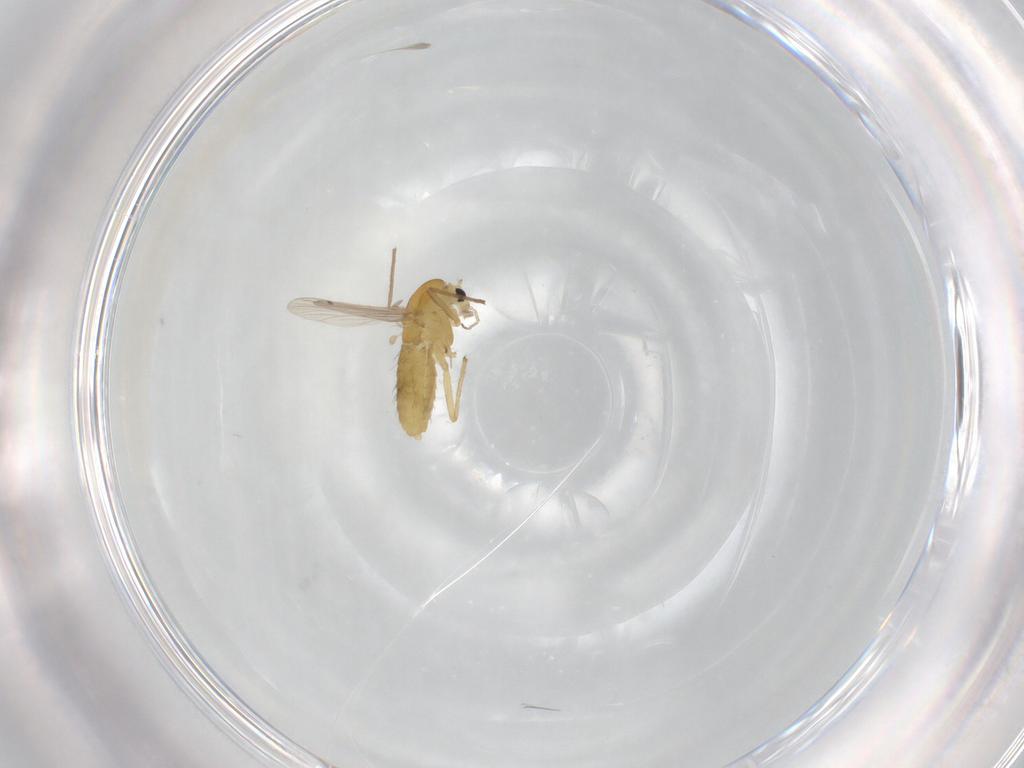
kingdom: Animalia
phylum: Arthropoda
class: Insecta
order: Diptera
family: Chironomidae
